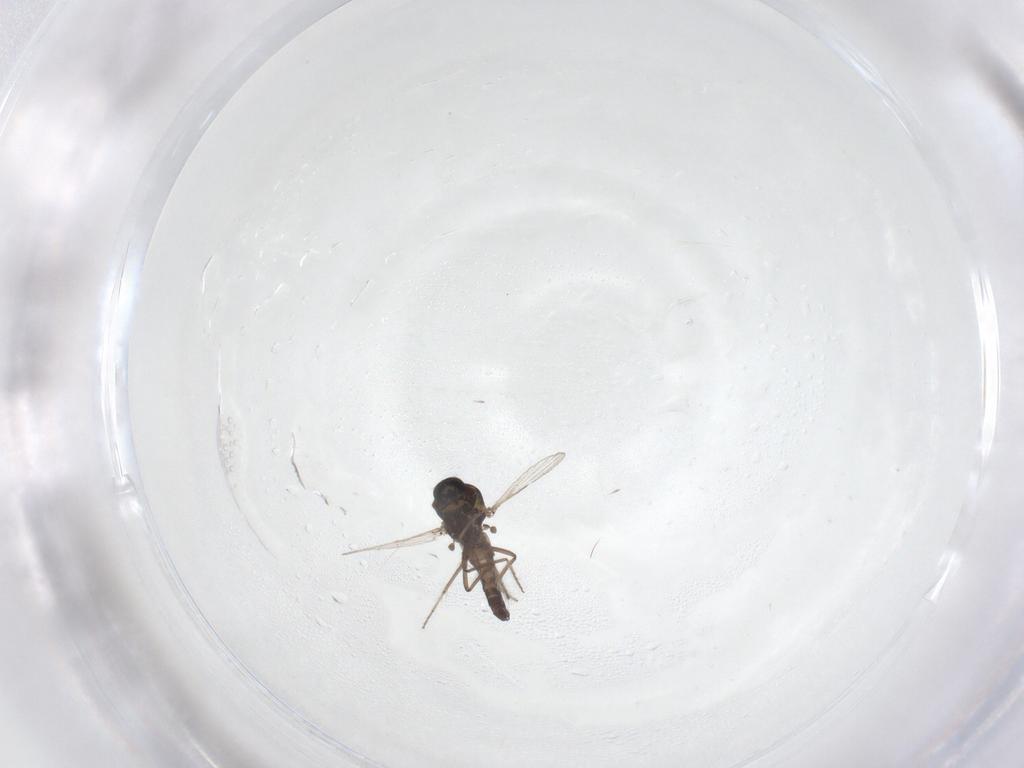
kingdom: Animalia
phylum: Arthropoda
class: Insecta
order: Diptera
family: Ceratopogonidae
